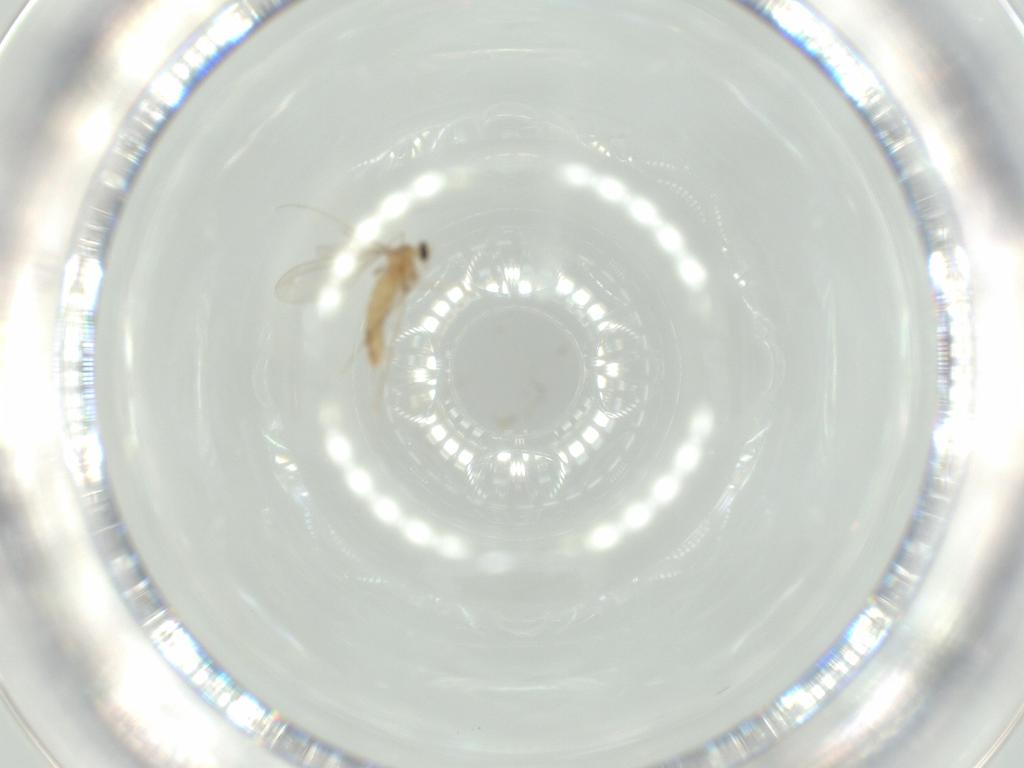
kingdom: Animalia
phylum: Arthropoda
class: Insecta
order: Diptera
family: Cecidomyiidae
